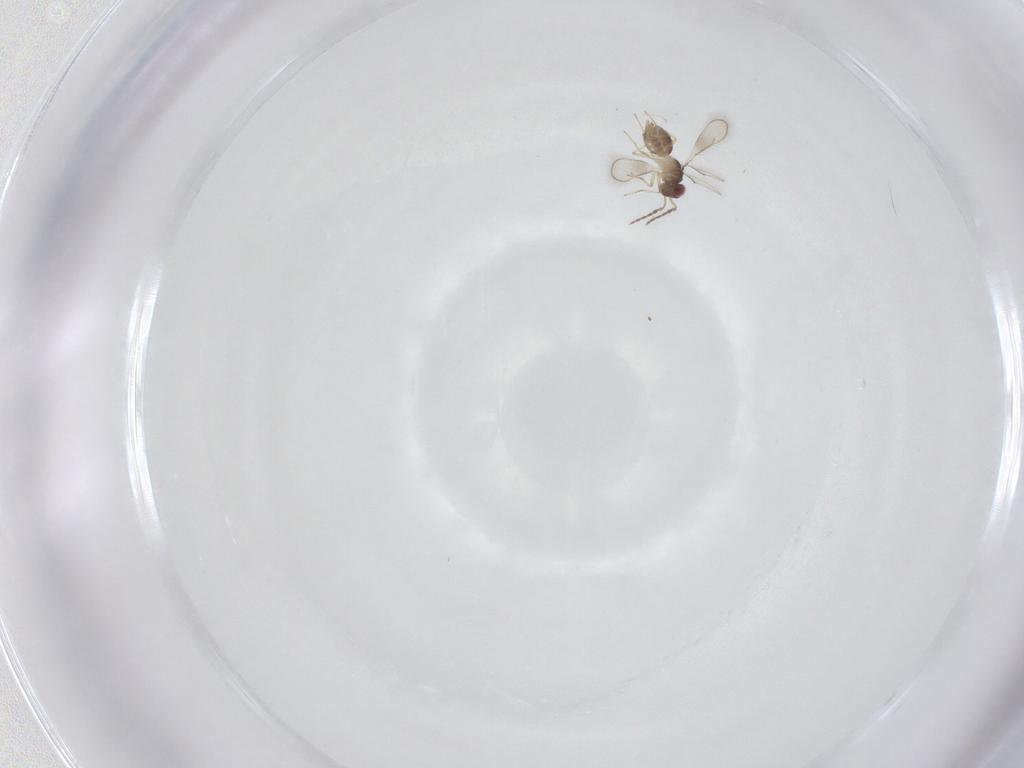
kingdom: Animalia
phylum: Arthropoda
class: Insecta
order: Hymenoptera
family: Eulophidae
